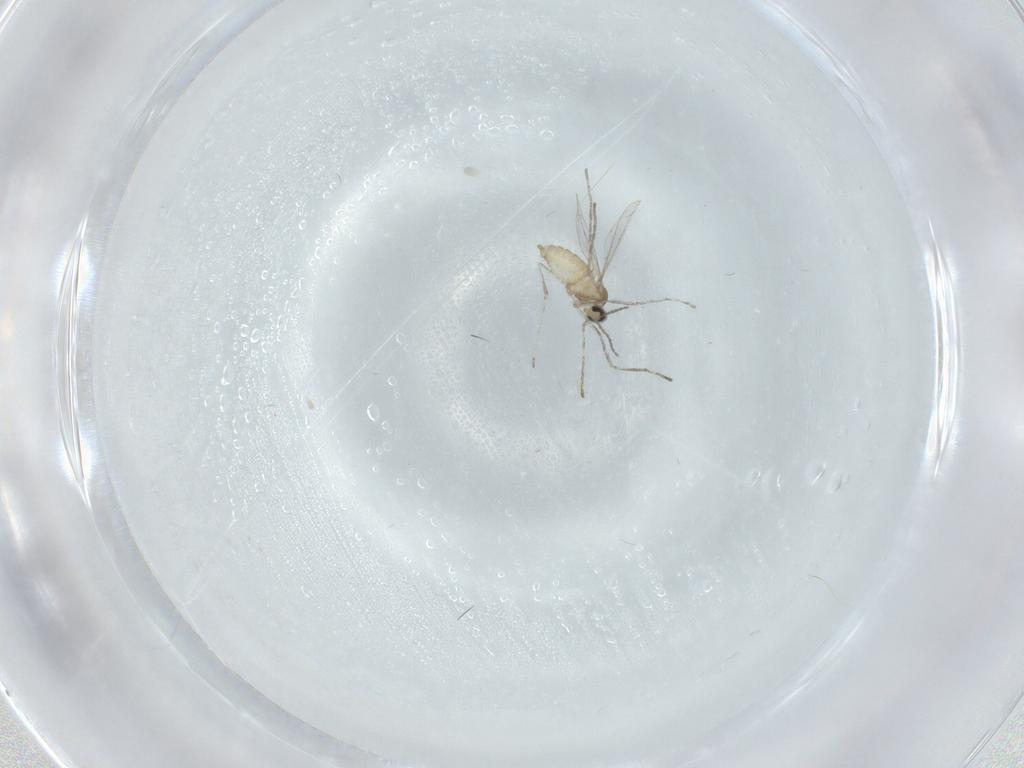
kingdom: Animalia
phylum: Arthropoda
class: Insecta
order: Diptera
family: Cecidomyiidae
